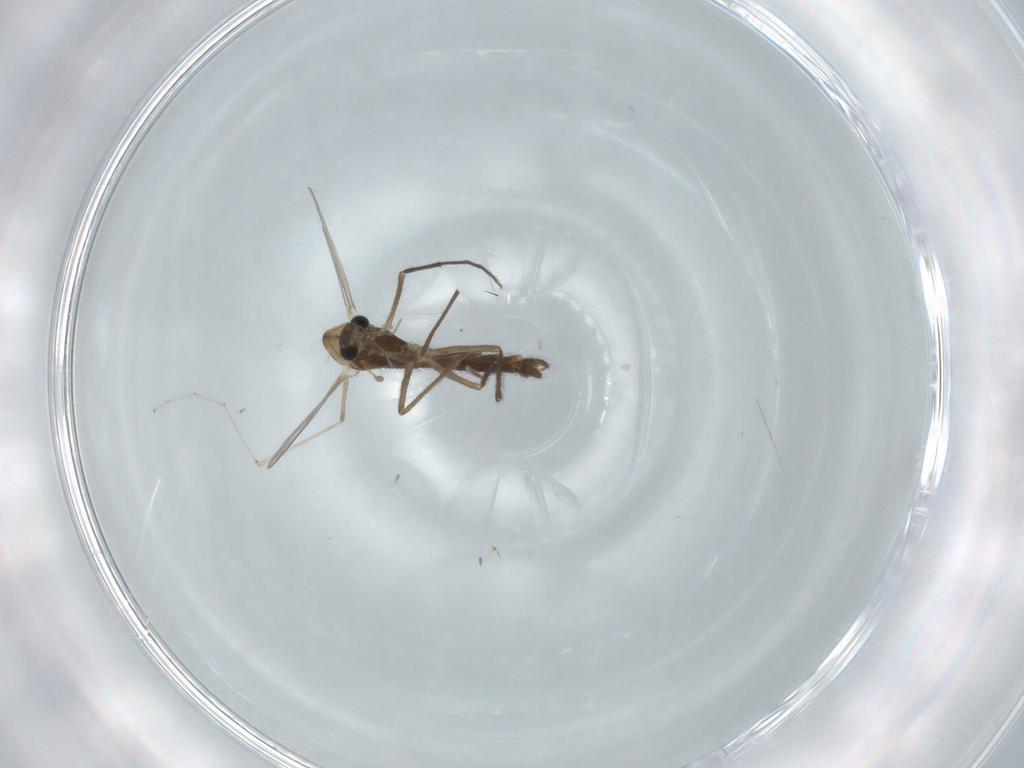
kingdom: Animalia
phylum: Arthropoda
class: Insecta
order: Diptera
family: Chironomidae
